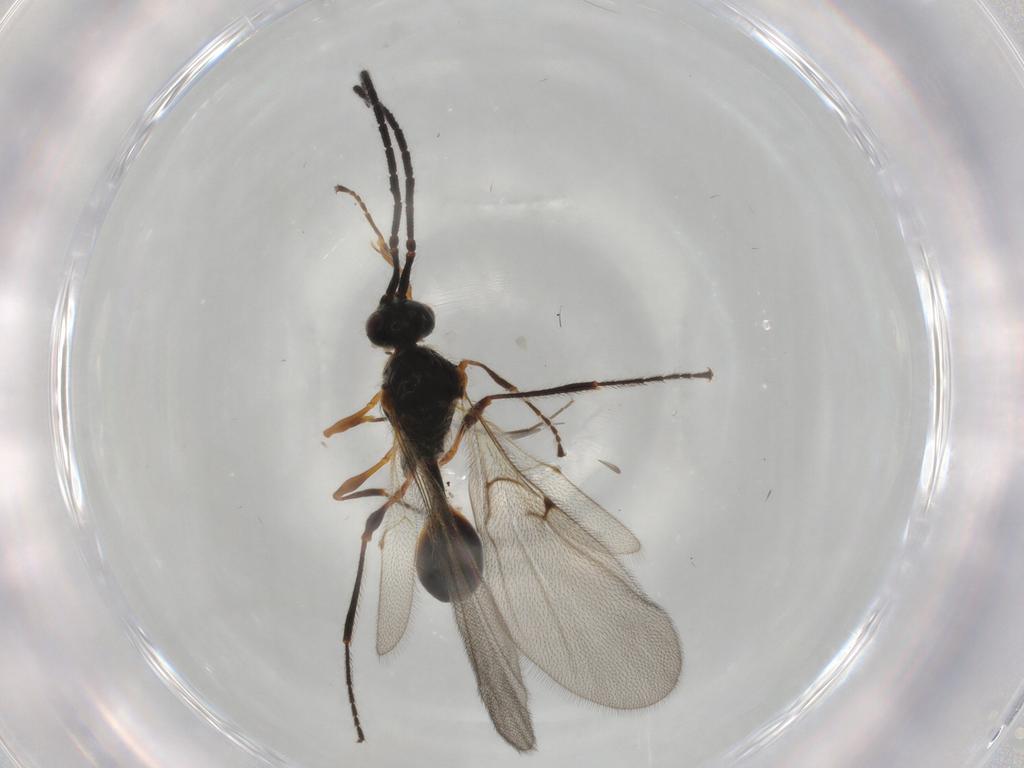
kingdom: Animalia
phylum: Arthropoda
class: Insecta
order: Hymenoptera
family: Diapriidae
